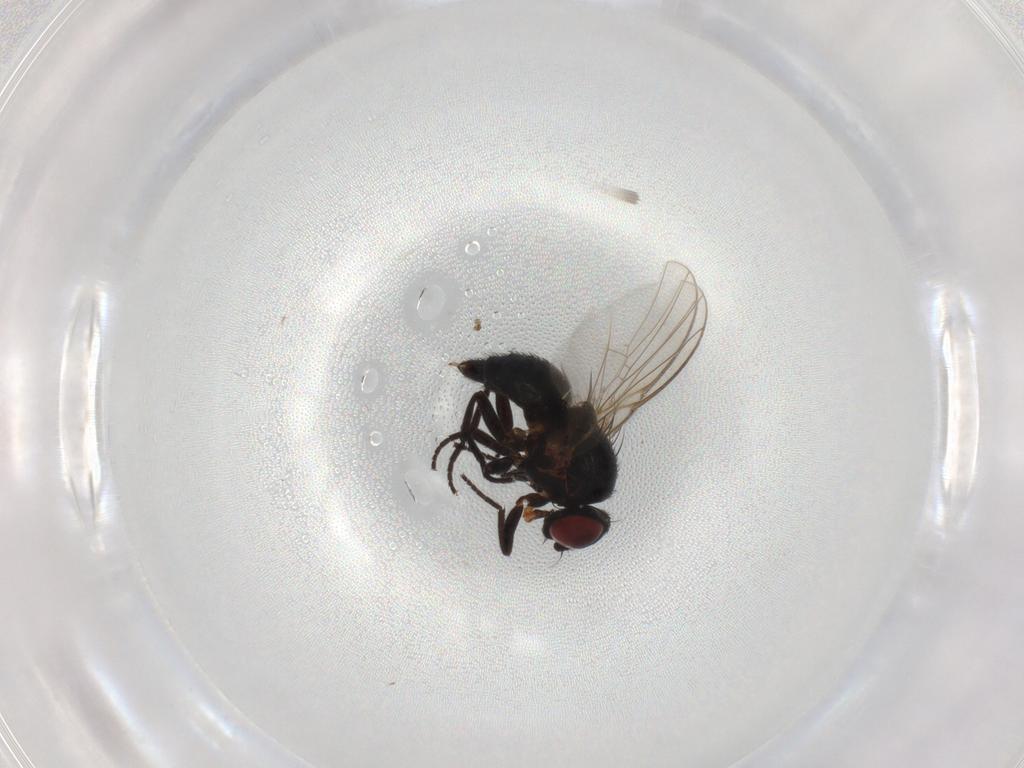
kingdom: Animalia
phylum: Arthropoda
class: Insecta
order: Diptera
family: Agromyzidae
